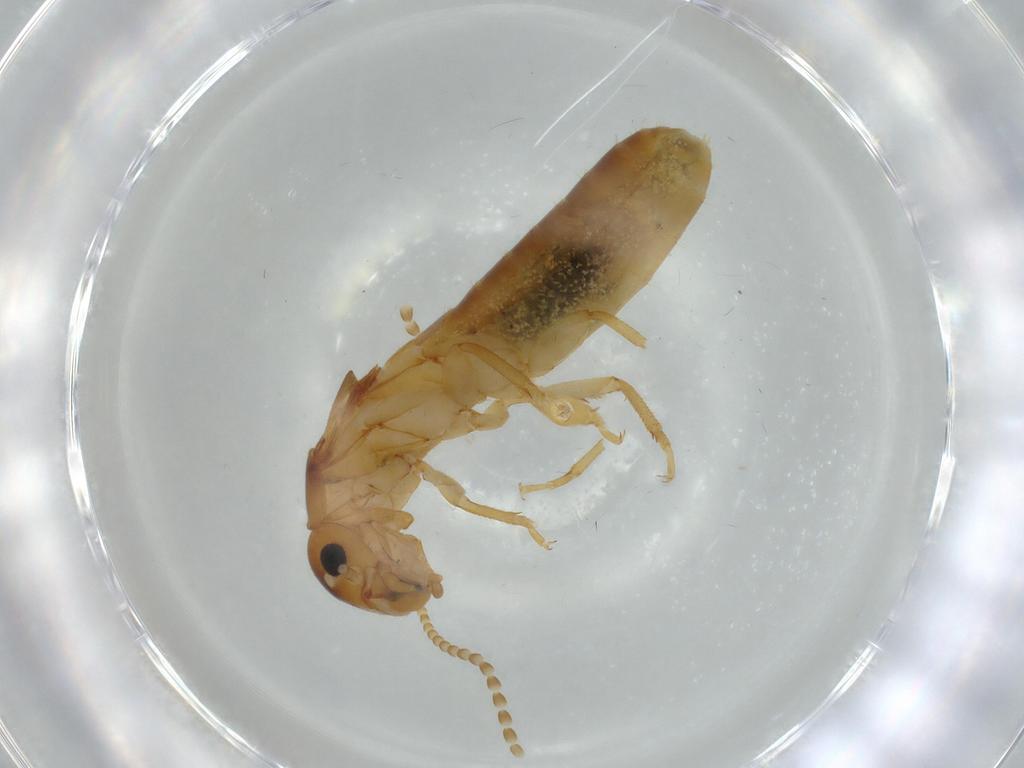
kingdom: Animalia
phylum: Arthropoda
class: Insecta
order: Blattodea
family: Kalotermitidae
